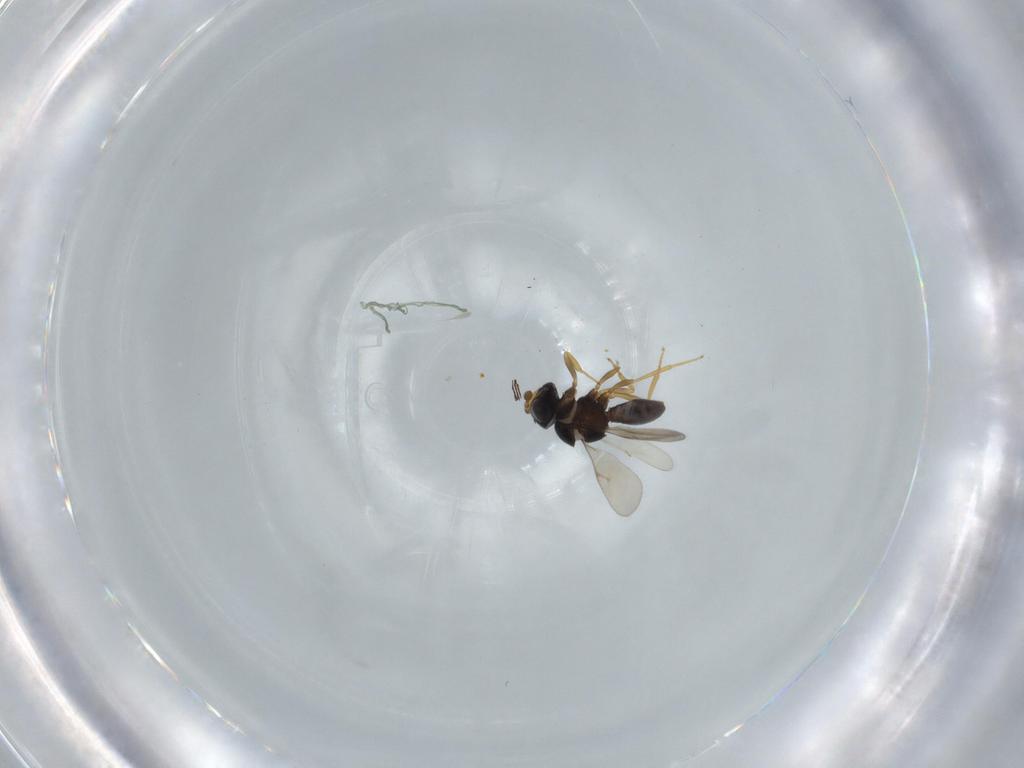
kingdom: Animalia
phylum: Arthropoda
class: Insecta
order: Hymenoptera
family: Scelionidae
